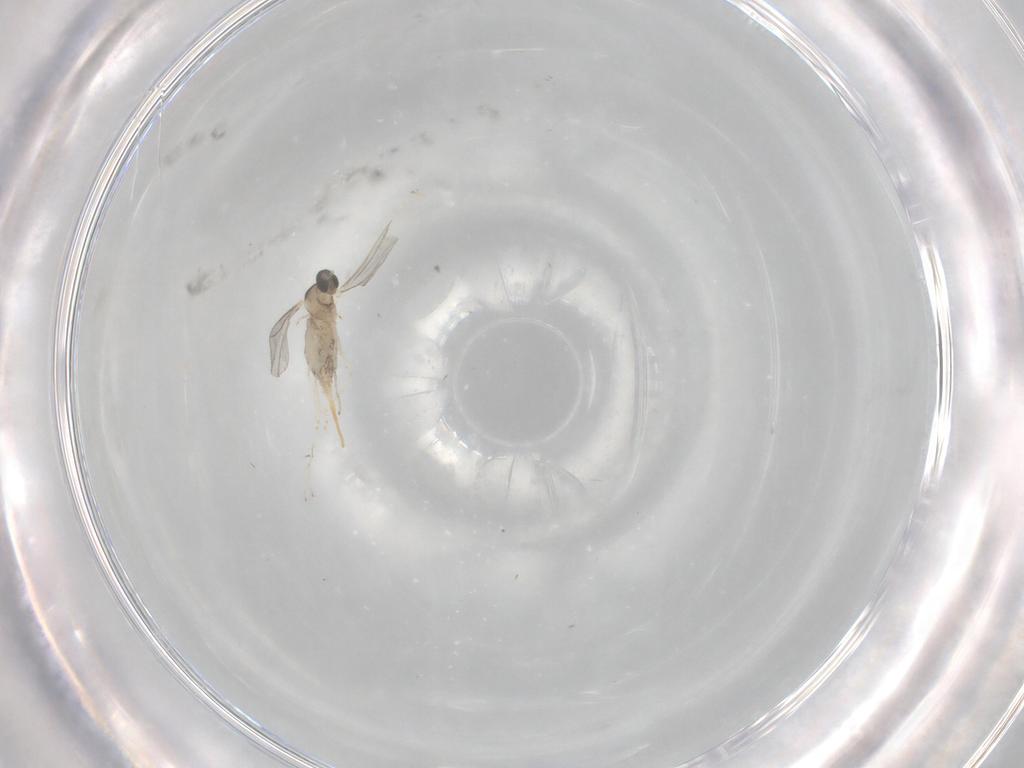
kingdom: Animalia
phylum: Arthropoda
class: Insecta
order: Diptera
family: Cecidomyiidae
